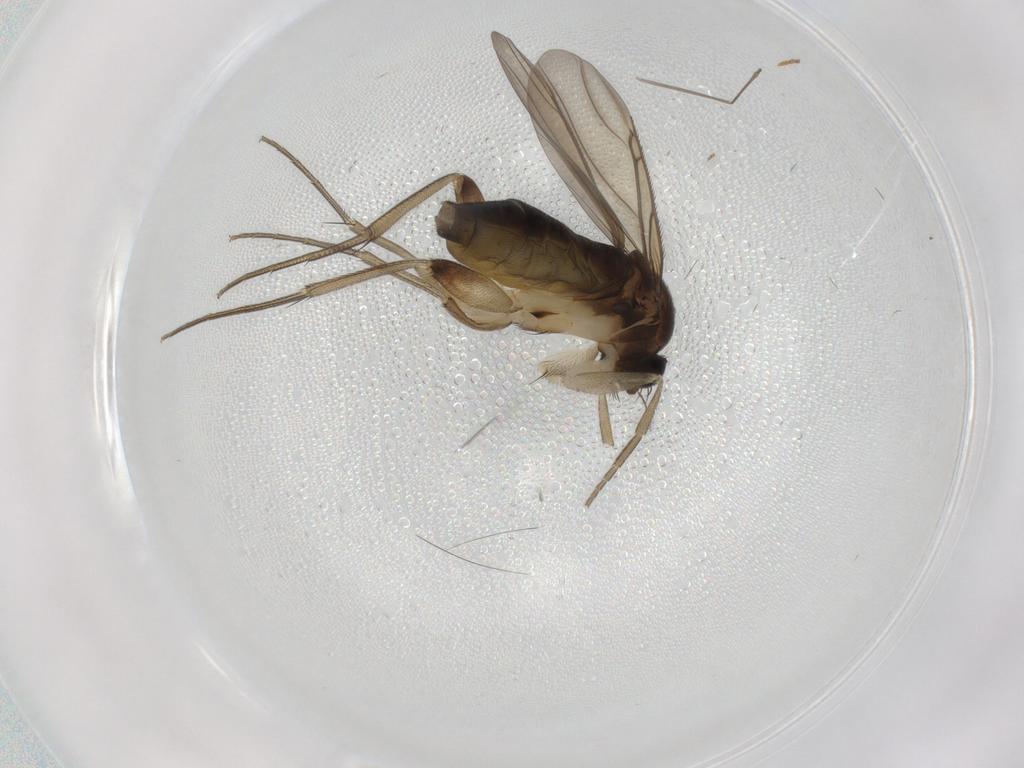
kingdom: Animalia
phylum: Arthropoda
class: Insecta
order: Diptera
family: Phoridae
